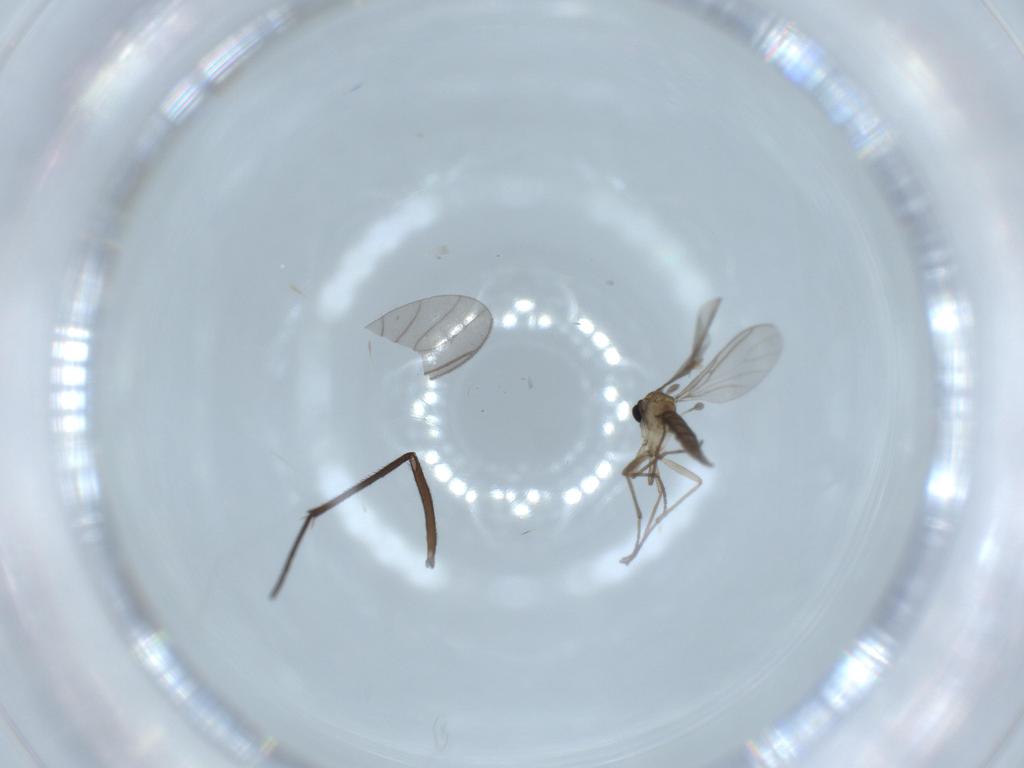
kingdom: Animalia
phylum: Arthropoda
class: Insecta
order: Diptera
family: Sciaridae
